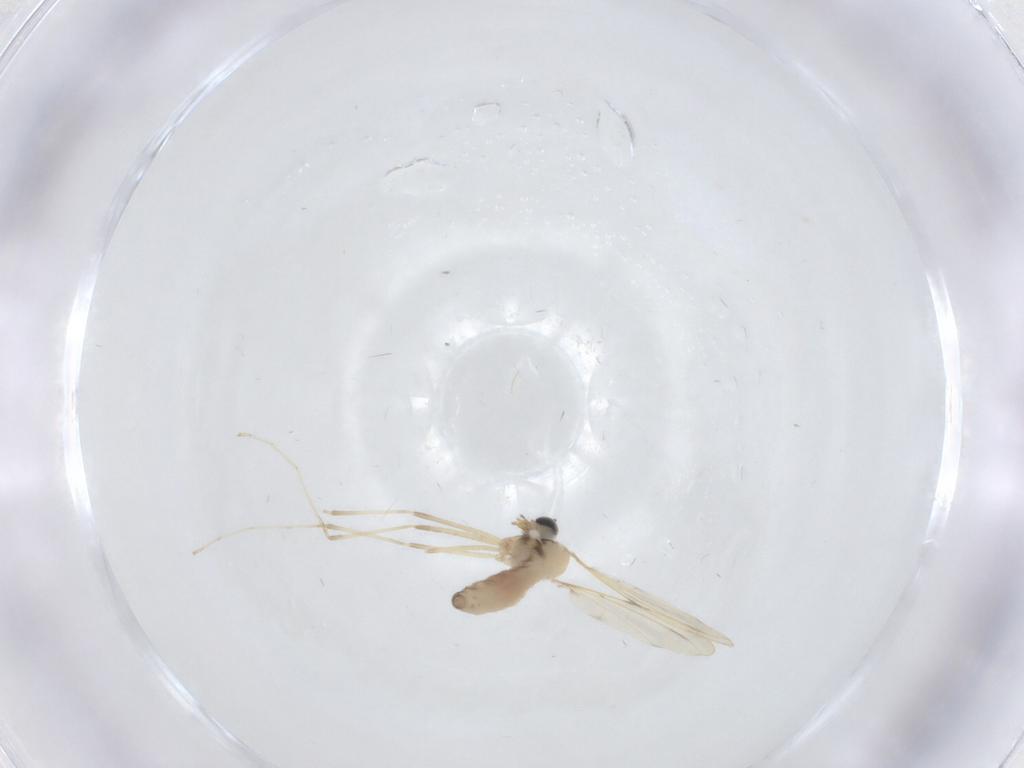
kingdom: Animalia
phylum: Arthropoda
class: Insecta
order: Diptera
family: Cecidomyiidae
